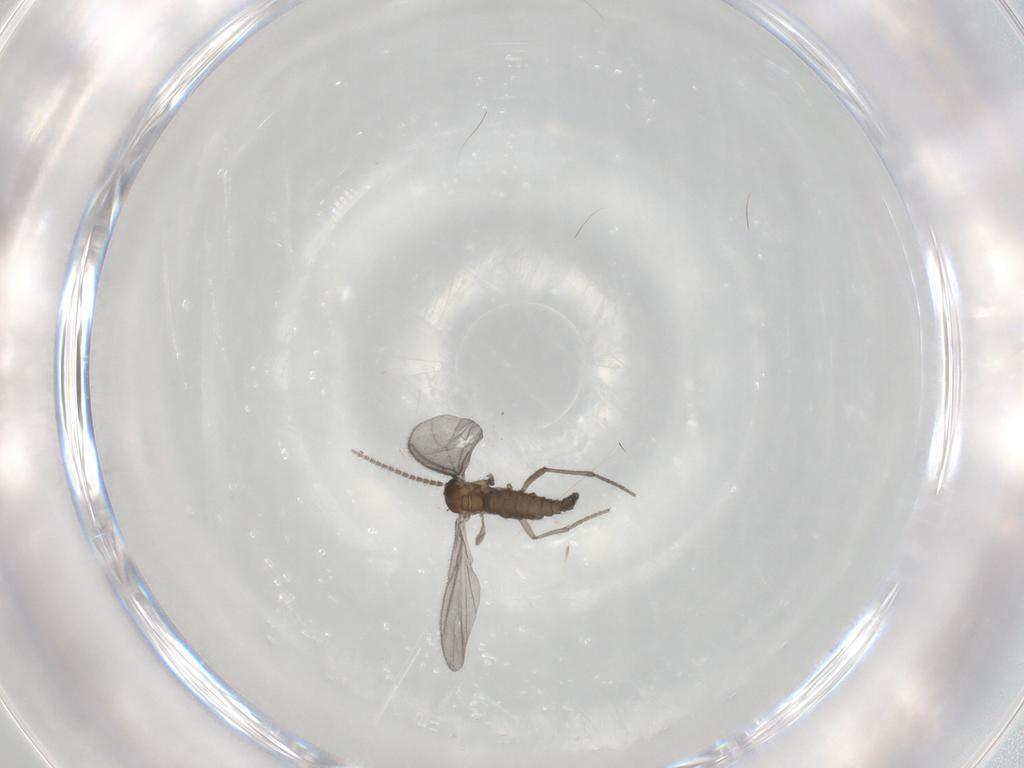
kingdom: Animalia
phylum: Arthropoda
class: Insecta
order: Diptera
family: Sciaridae
